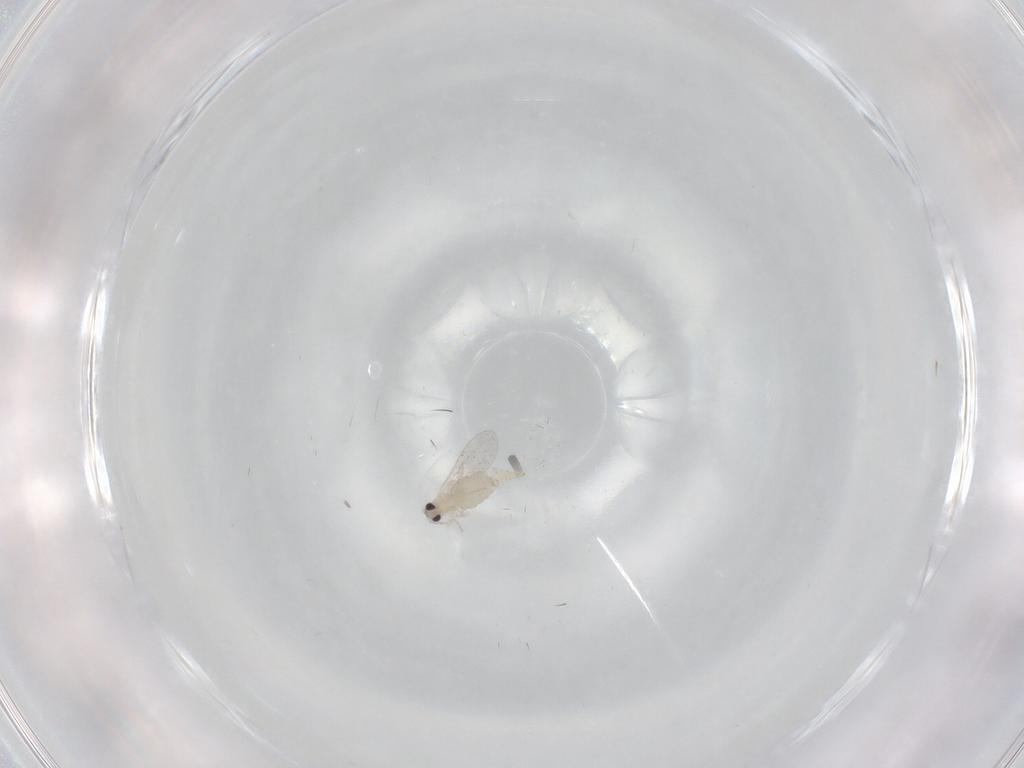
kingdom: Animalia
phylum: Arthropoda
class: Insecta
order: Diptera
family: Cecidomyiidae
